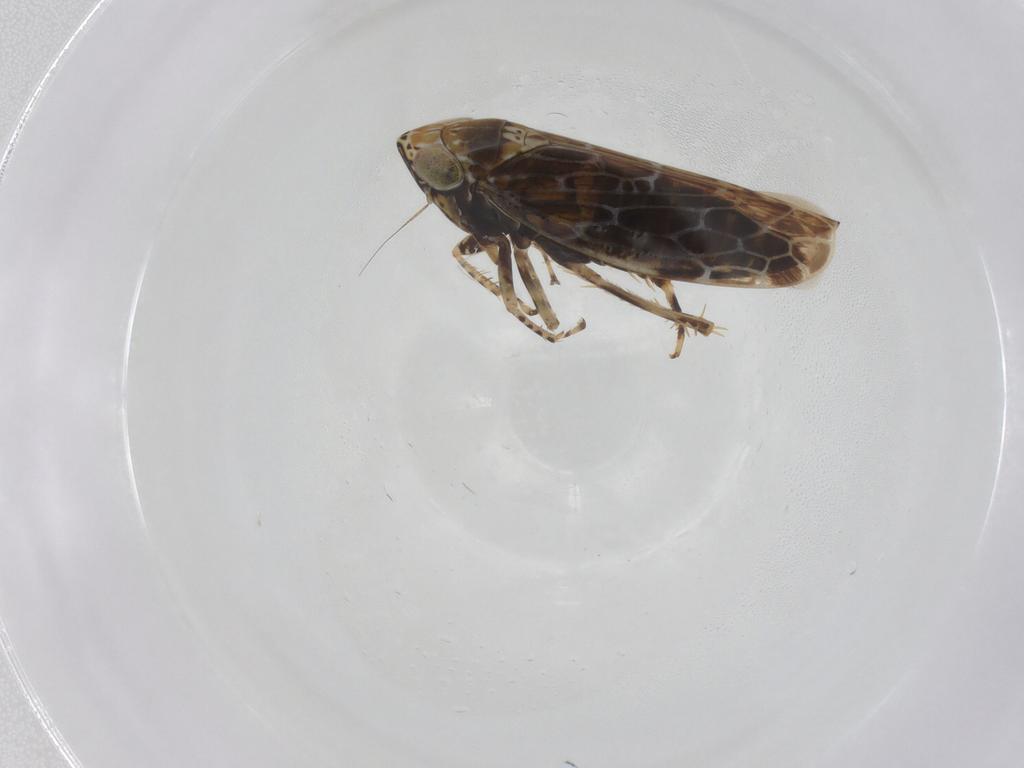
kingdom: Animalia
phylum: Arthropoda
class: Insecta
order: Hemiptera
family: Cicadellidae
